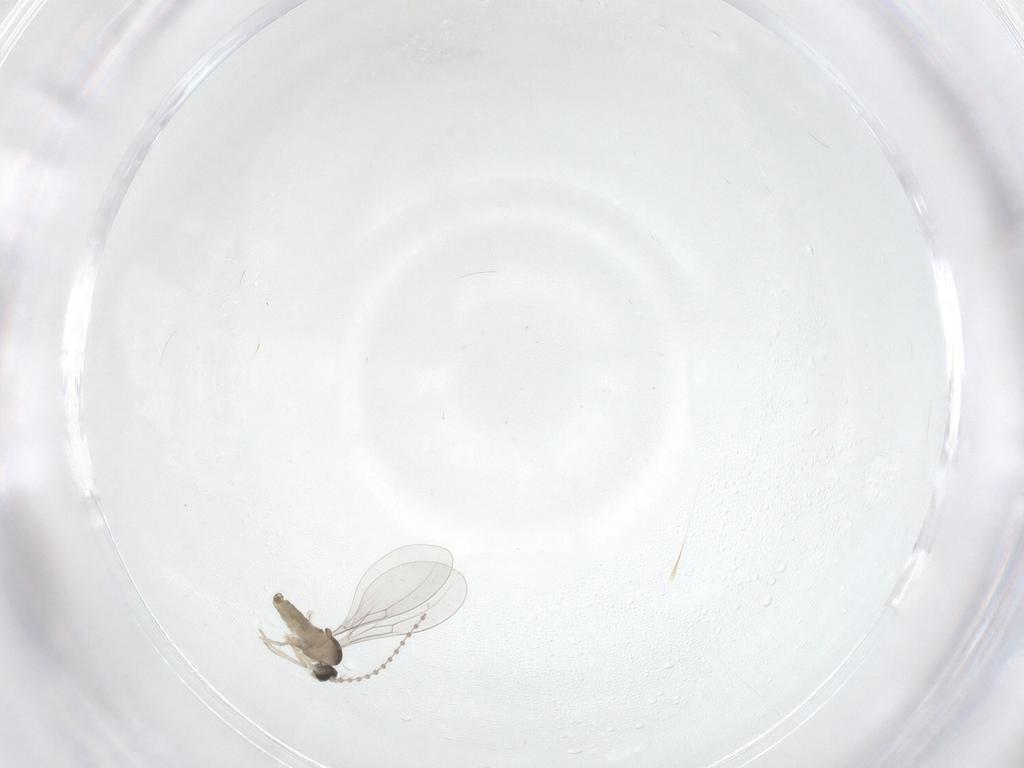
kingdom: Animalia
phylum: Arthropoda
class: Insecta
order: Diptera
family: Cecidomyiidae
